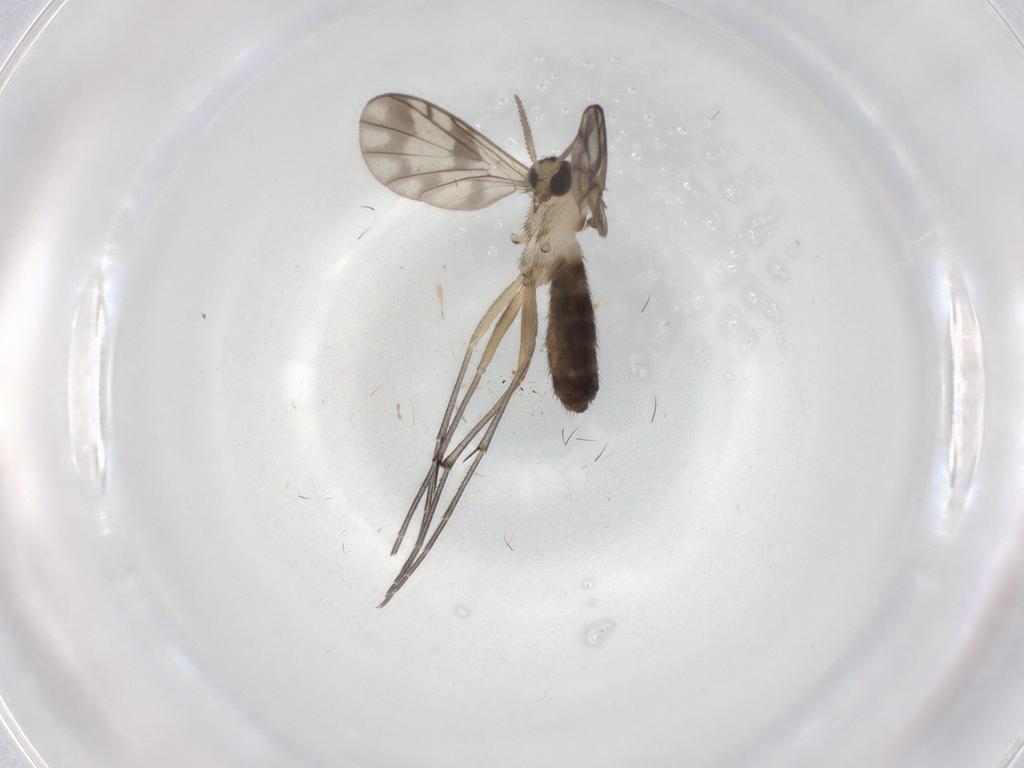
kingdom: Animalia
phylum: Arthropoda
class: Insecta
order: Diptera
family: Keroplatidae
